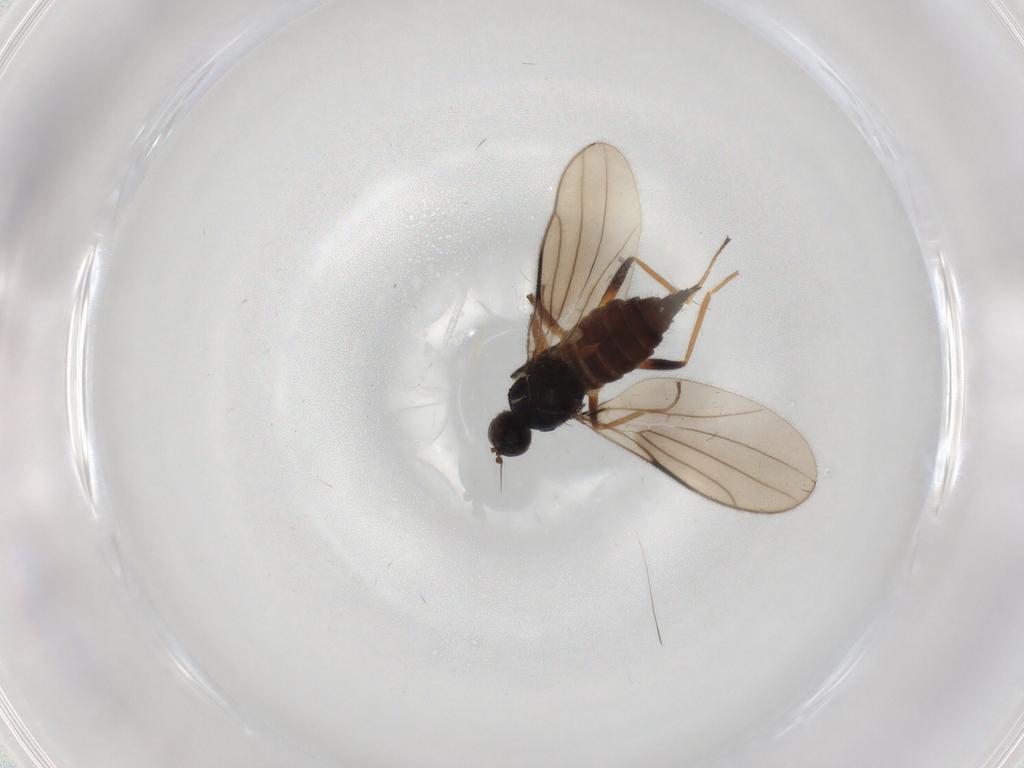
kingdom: Animalia
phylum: Arthropoda
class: Insecta
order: Diptera
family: Hybotidae
